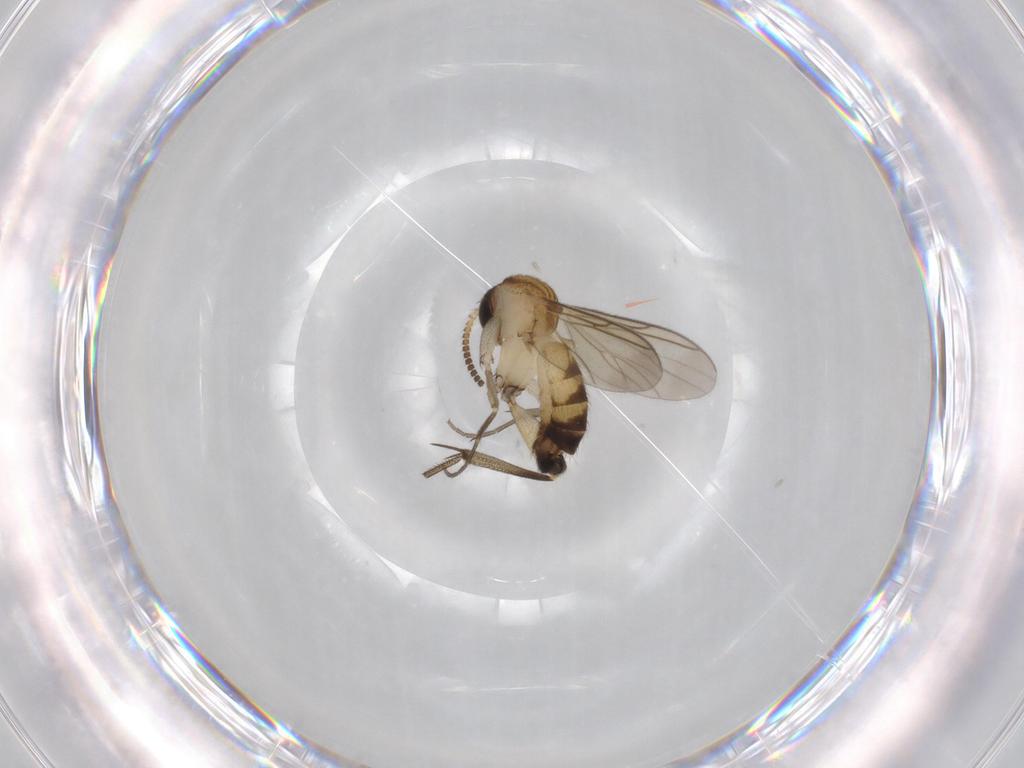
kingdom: Animalia
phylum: Arthropoda
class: Insecta
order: Diptera
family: Mycetophilidae
